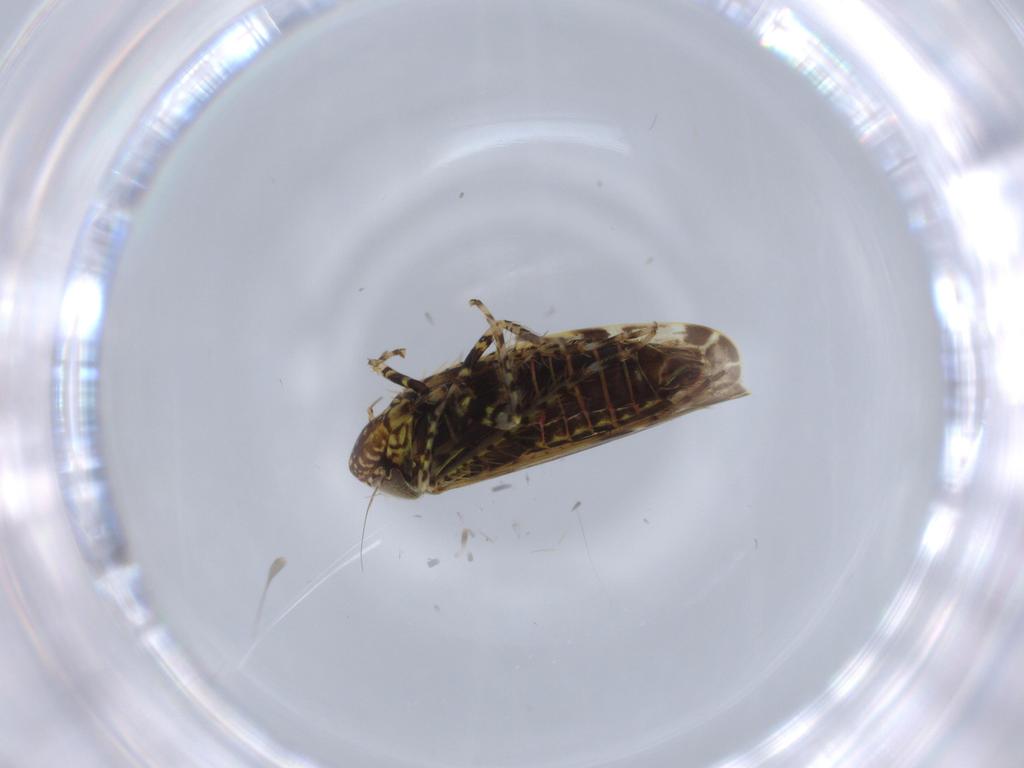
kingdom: Animalia
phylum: Arthropoda
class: Insecta
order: Hemiptera
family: Cicadellidae
